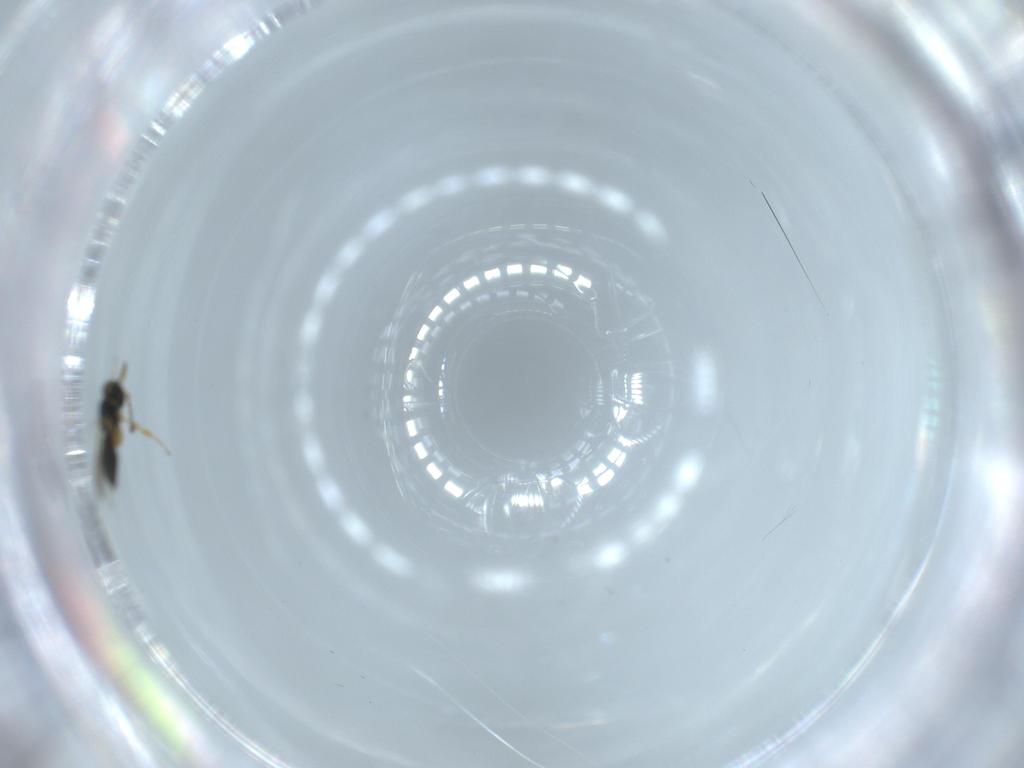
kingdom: Animalia
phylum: Arthropoda
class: Insecta
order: Hymenoptera
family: Scelionidae
